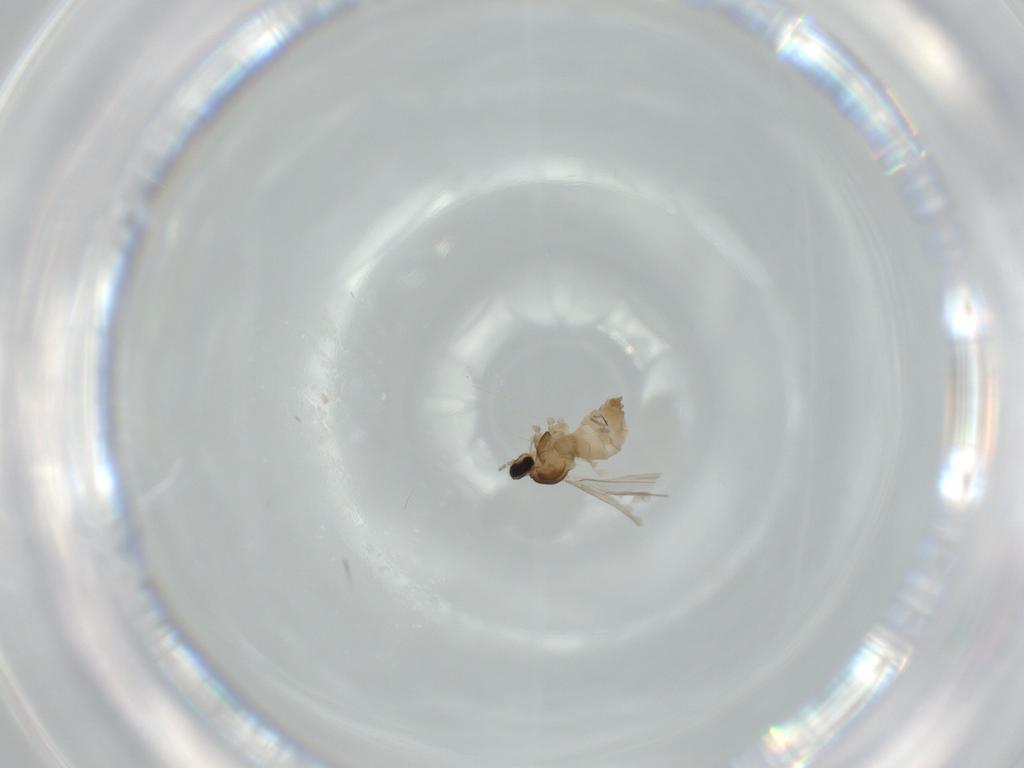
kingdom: Animalia
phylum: Arthropoda
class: Insecta
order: Diptera
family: Cecidomyiidae
